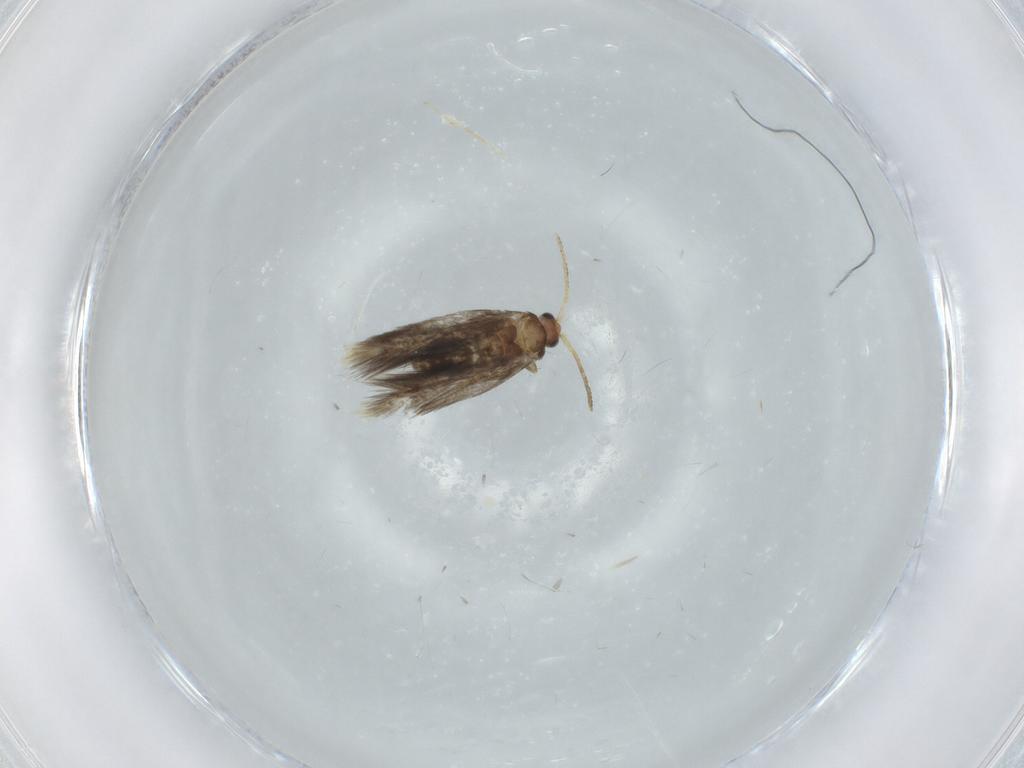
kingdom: Animalia
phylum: Arthropoda
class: Insecta
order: Lepidoptera
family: Copromorphidae
